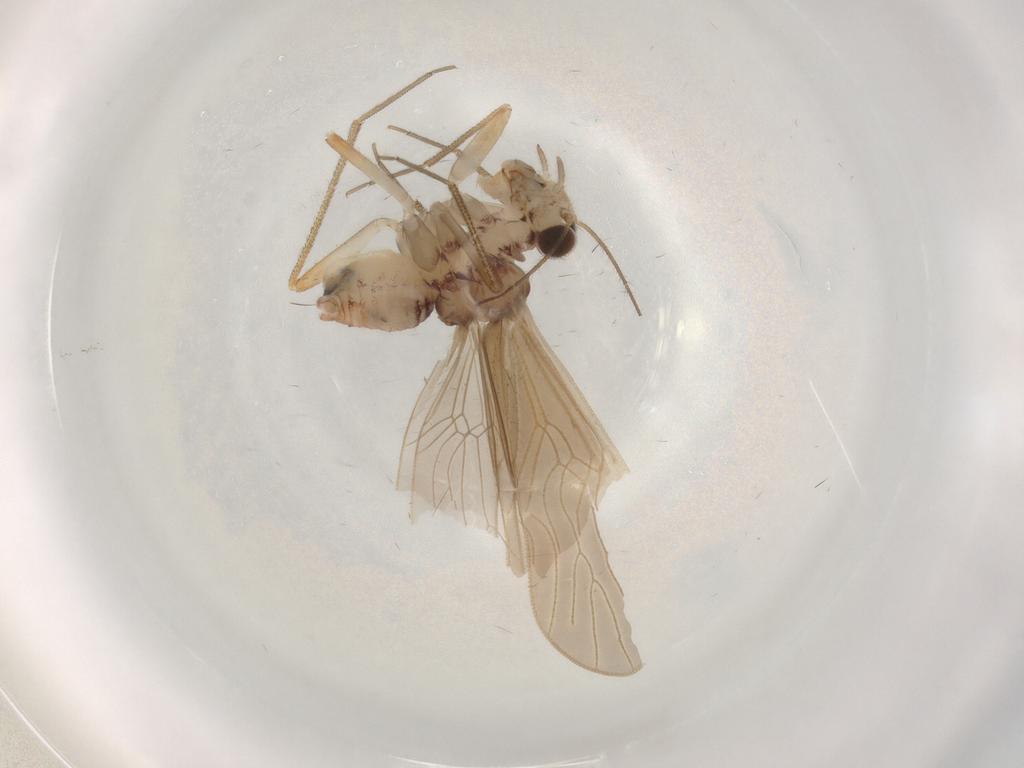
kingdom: Animalia
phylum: Arthropoda
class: Insecta
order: Psocodea
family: Mesopsocidae
